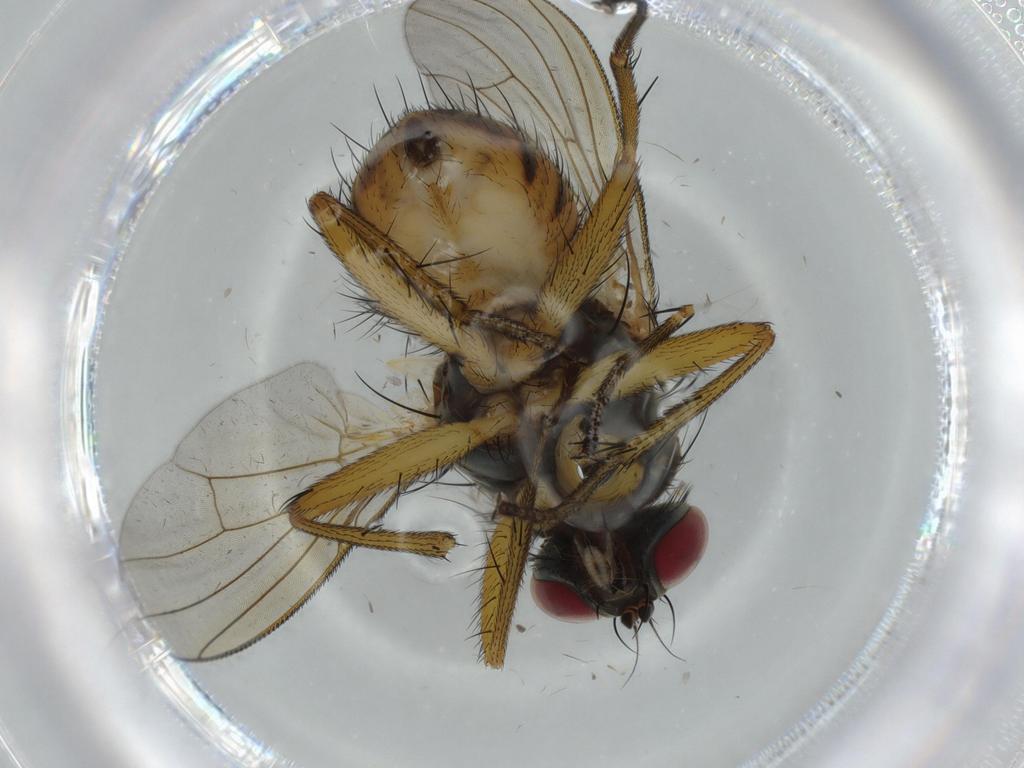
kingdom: Animalia
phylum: Arthropoda
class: Insecta
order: Diptera
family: Muscidae
